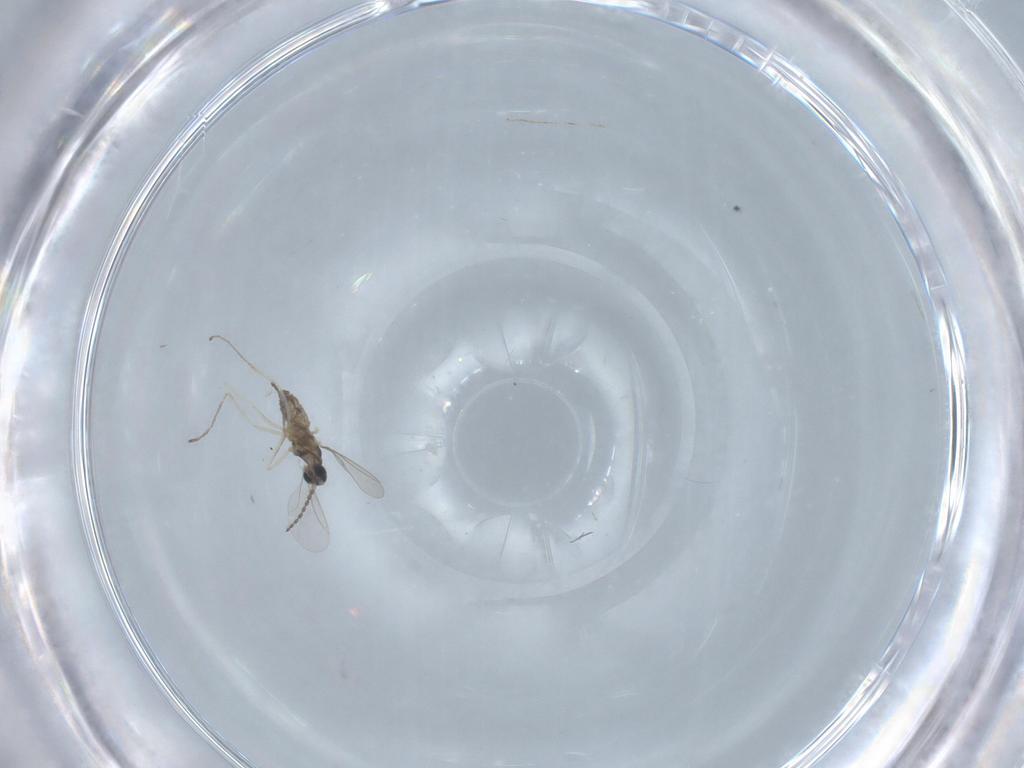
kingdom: Animalia
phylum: Arthropoda
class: Insecta
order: Diptera
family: Cecidomyiidae
